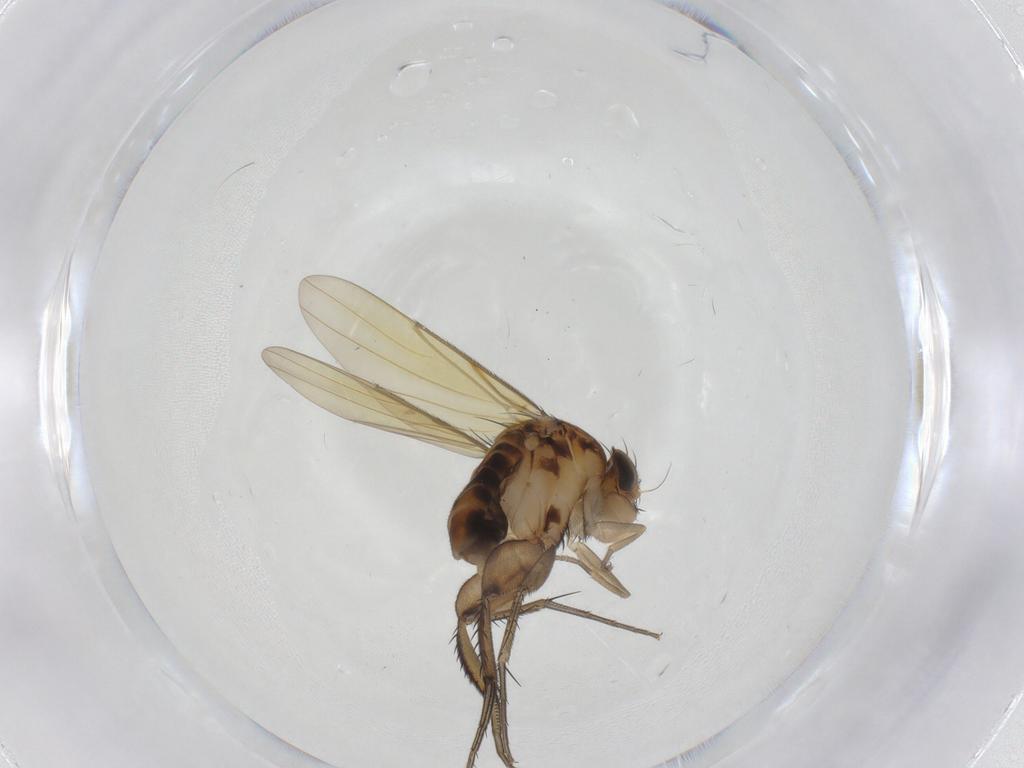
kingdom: Animalia
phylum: Arthropoda
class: Insecta
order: Diptera
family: Phoridae
